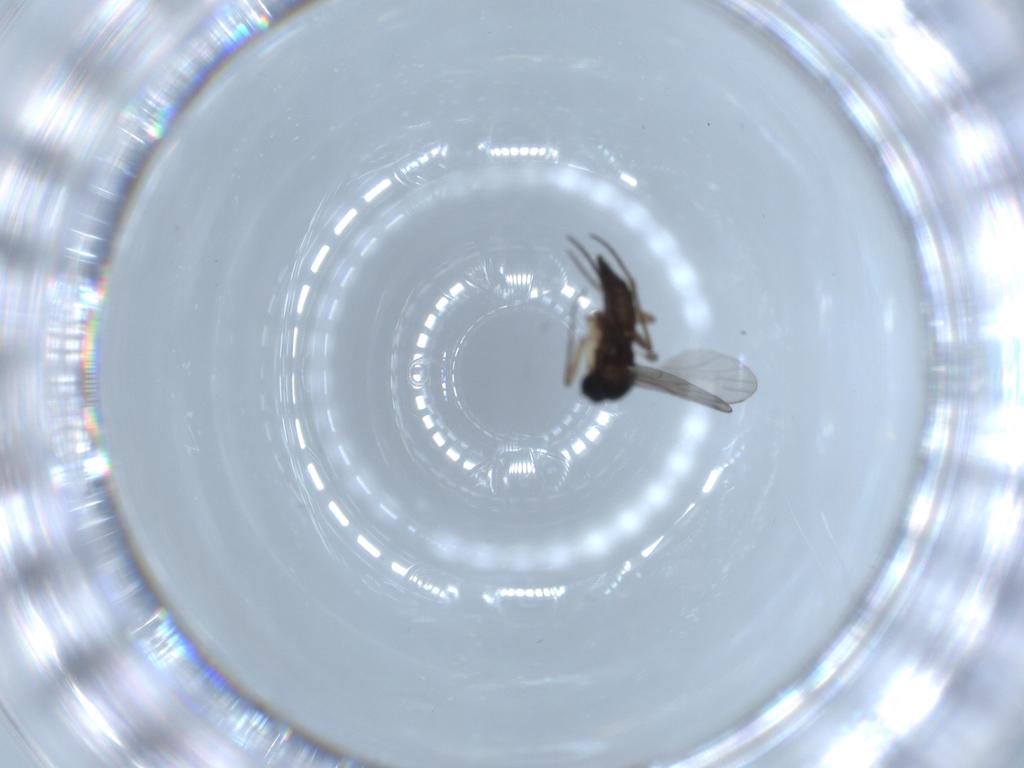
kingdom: Animalia
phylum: Arthropoda
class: Insecta
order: Diptera
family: Sciaridae
